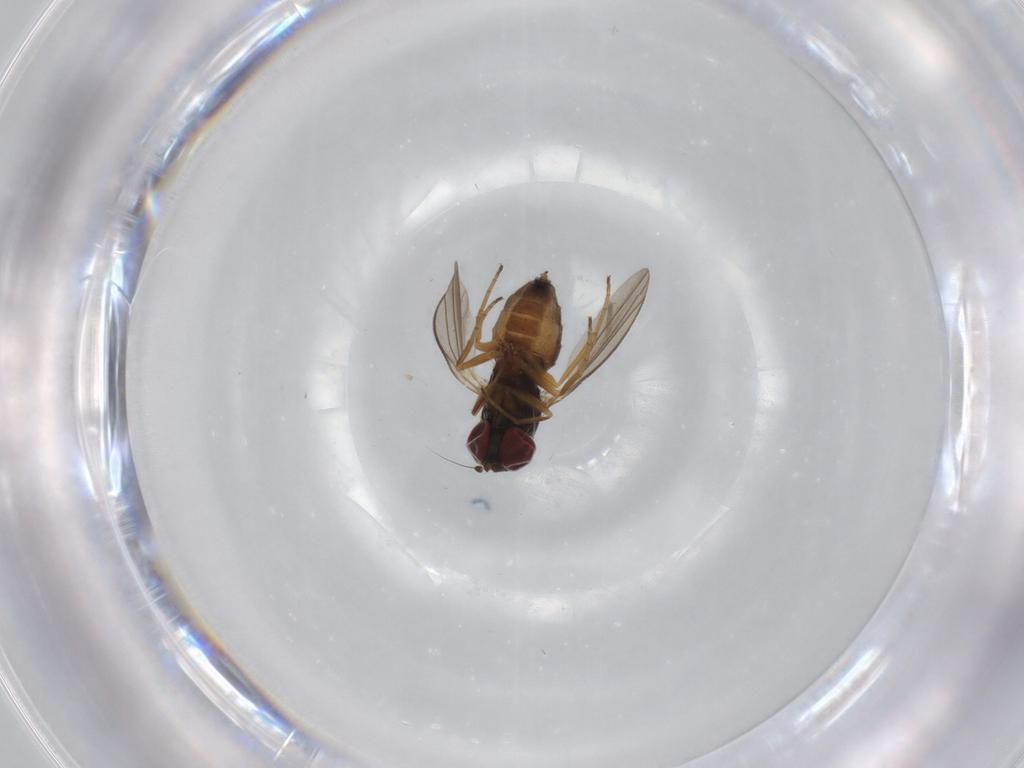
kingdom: Animalia
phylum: Arthropoda
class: Insecta
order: Diptera
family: Dolichopodidae
